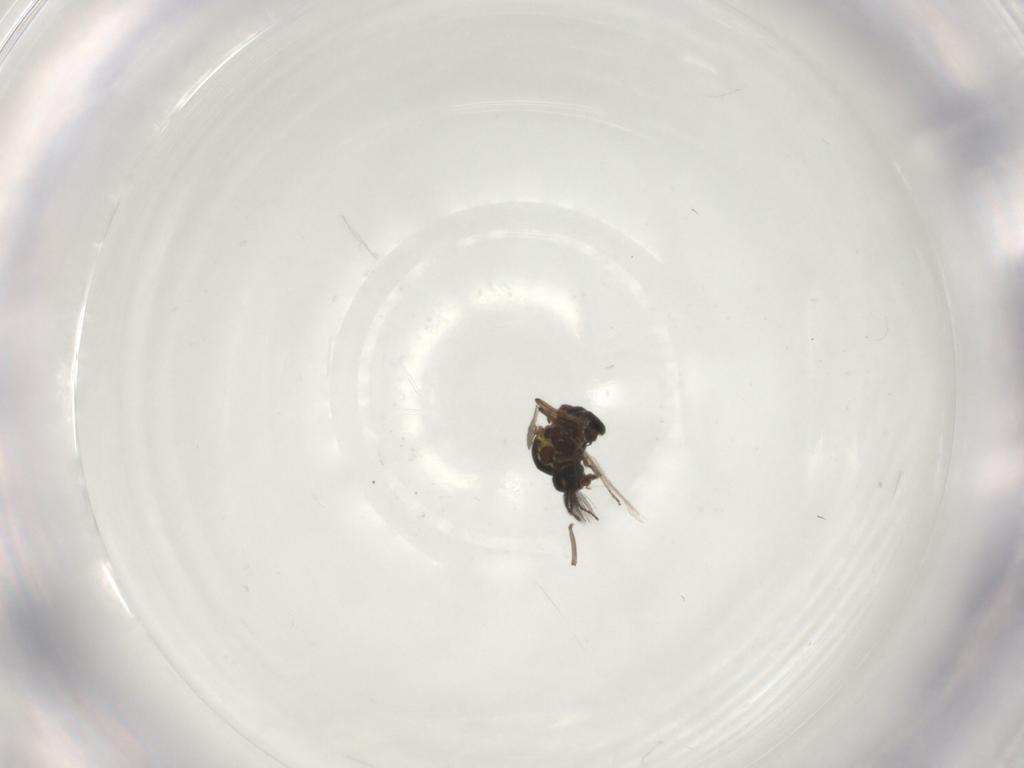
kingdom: Animalia
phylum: Arthropoda
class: Insecta
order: Diptera
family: Ceratopogonidae
